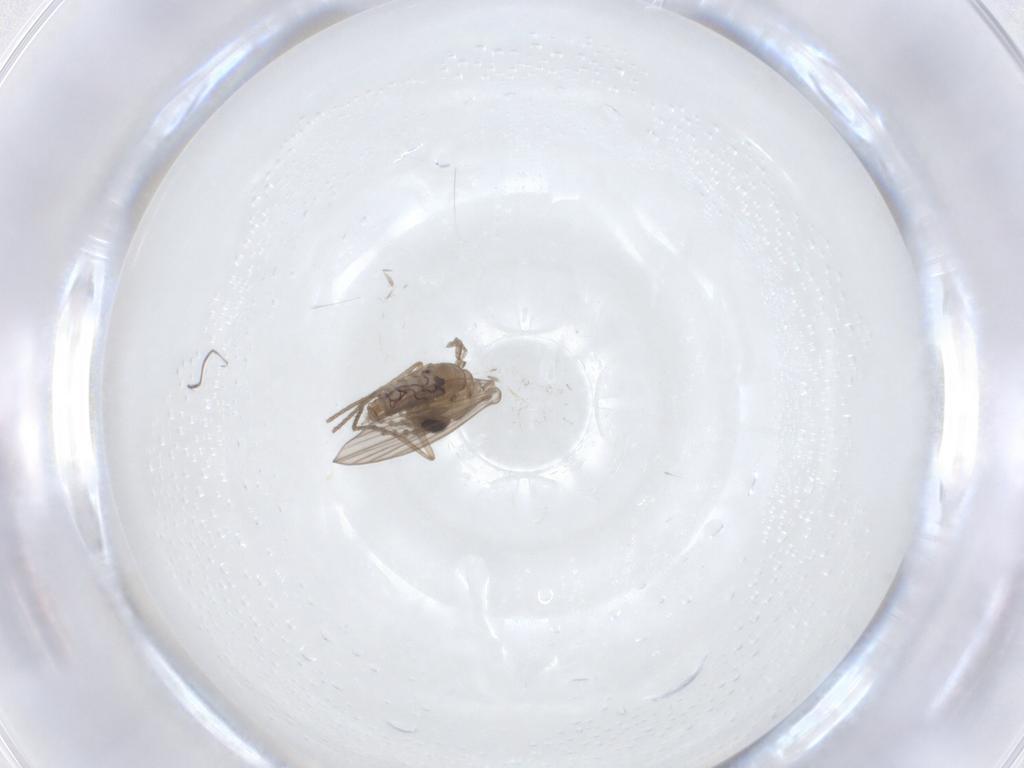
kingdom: Animalia
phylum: Arthropoda
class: Insecta
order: Diptera
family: Psychodidae
